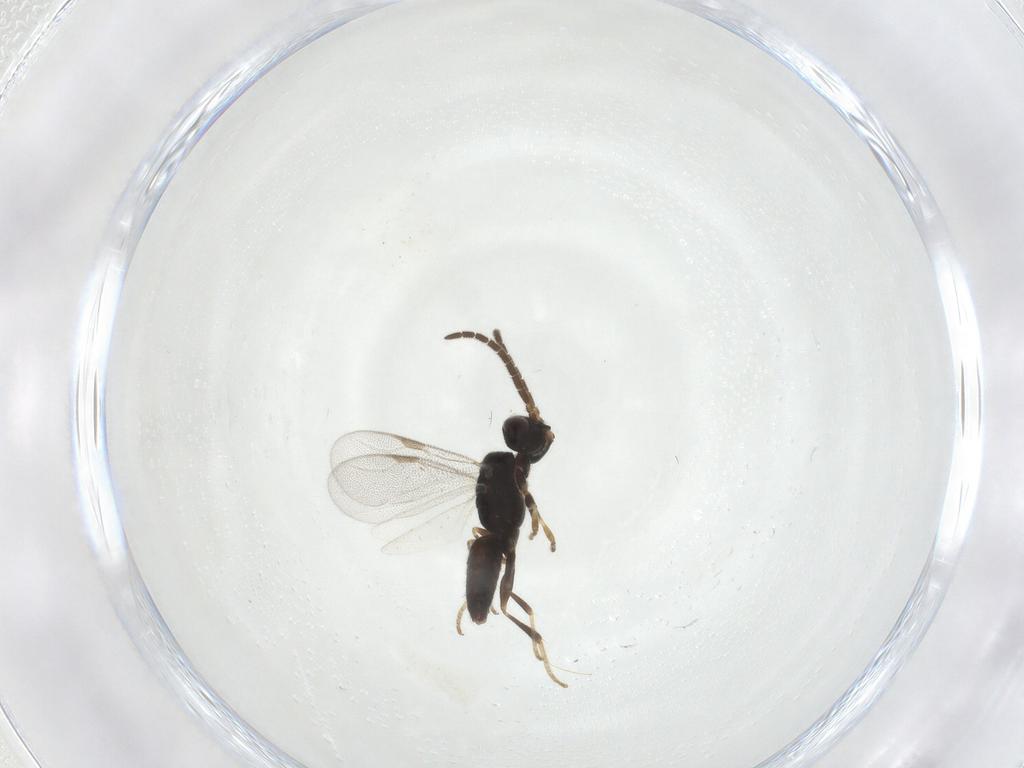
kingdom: Animalia
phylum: Arthropoda
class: Insecta
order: Hymenoptera
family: Dryinidae
